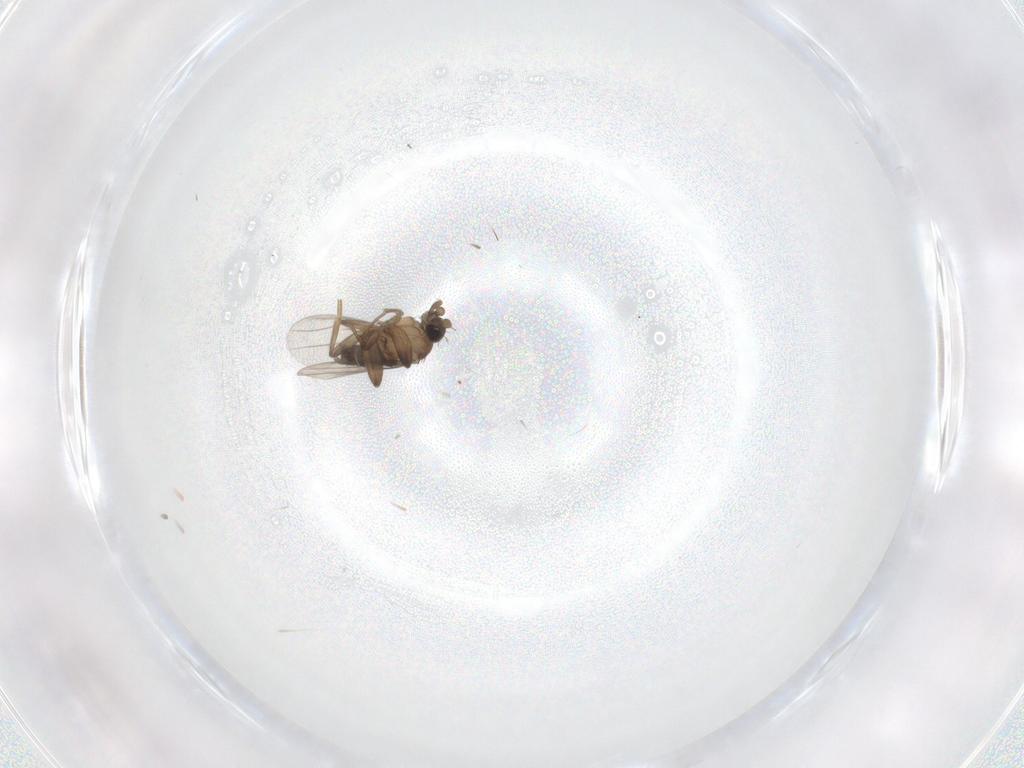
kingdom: Animalia
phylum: Arthropoda
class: Insecta
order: Diptera
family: Phoridae
